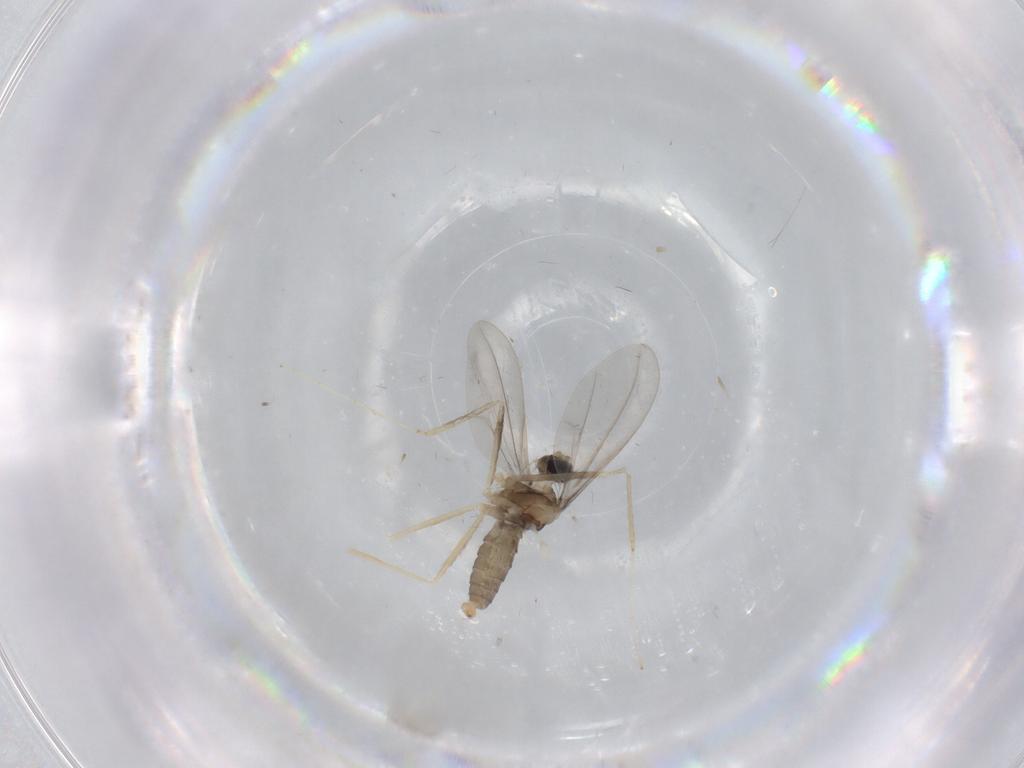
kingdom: Animalia
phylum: Arthropoda
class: Insecta
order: Diptera
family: Cecidomyiidae
